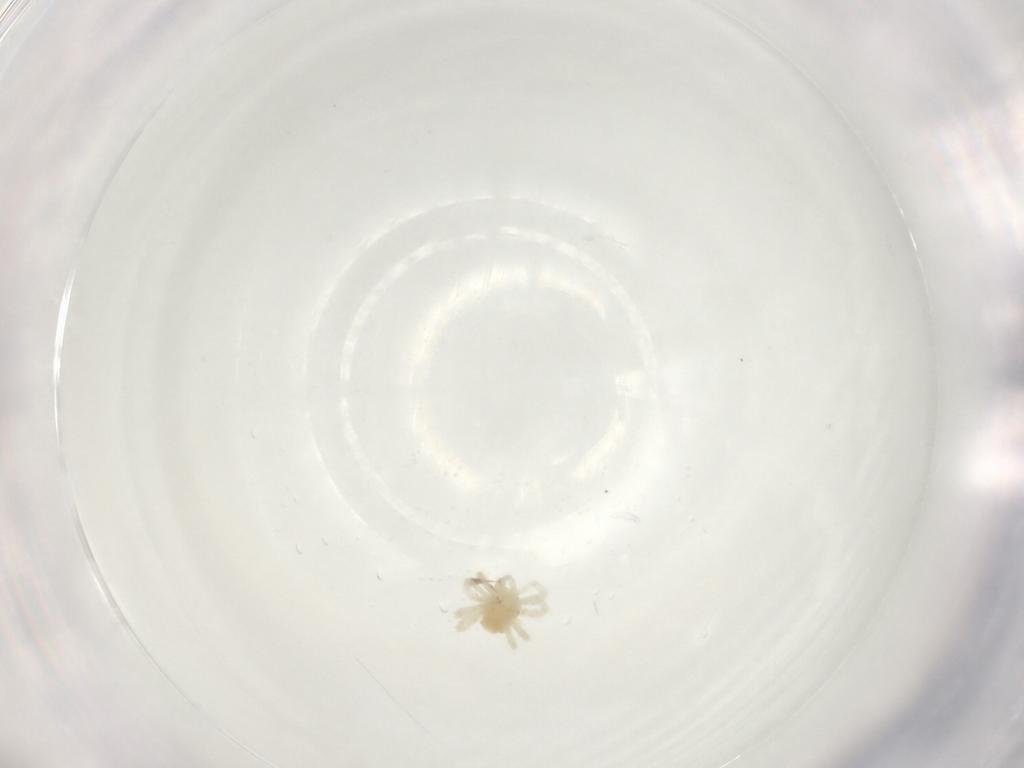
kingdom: Animalia
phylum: Arthropoda
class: Arachnida
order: Trombidiformes
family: Anystidae
